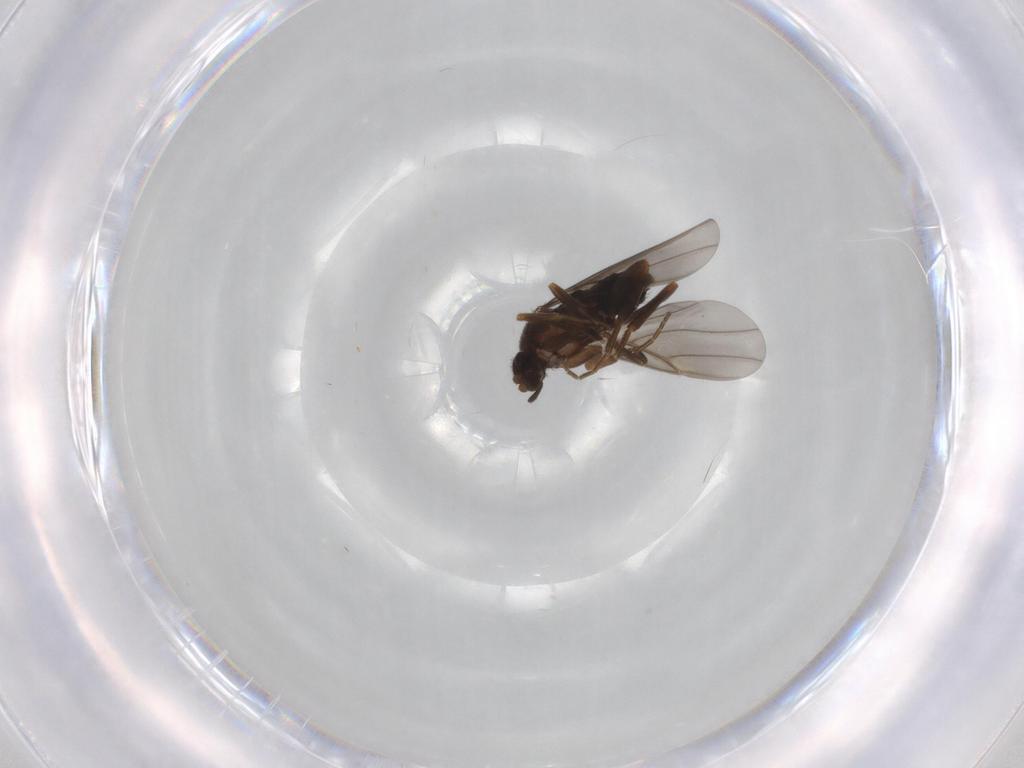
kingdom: Animalia
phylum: Arthropoda
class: Insecta
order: Diptera
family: Phoridae
